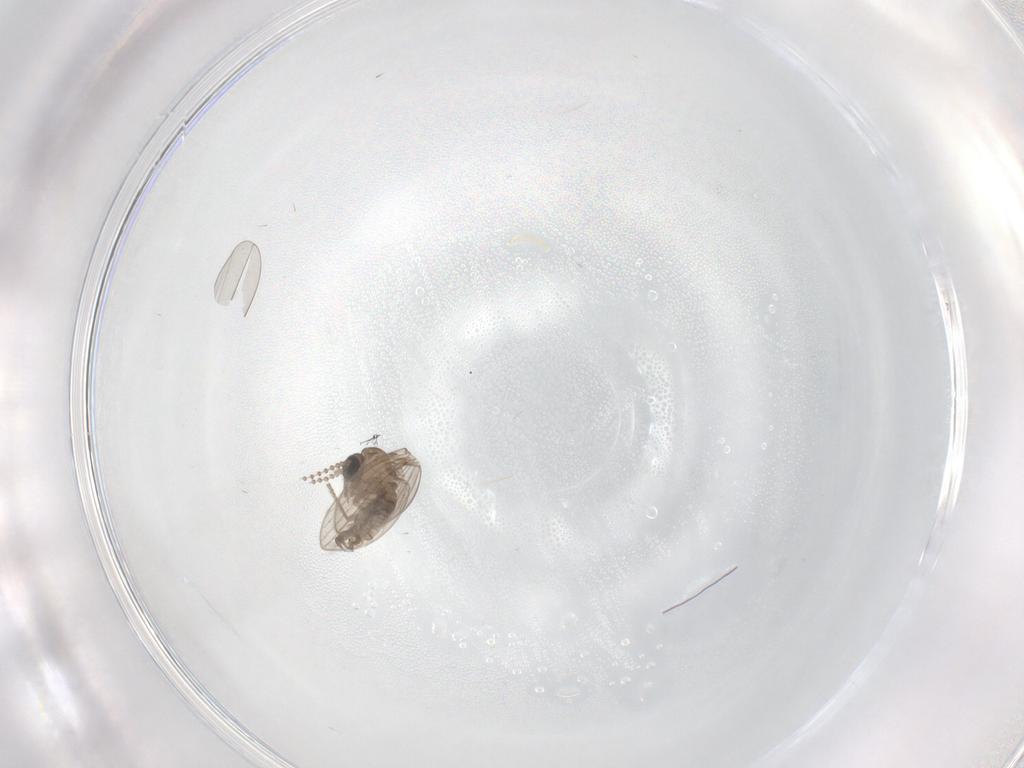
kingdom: Animalia
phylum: Arthropoda
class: Insecta
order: Diptera
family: Psychodidae
